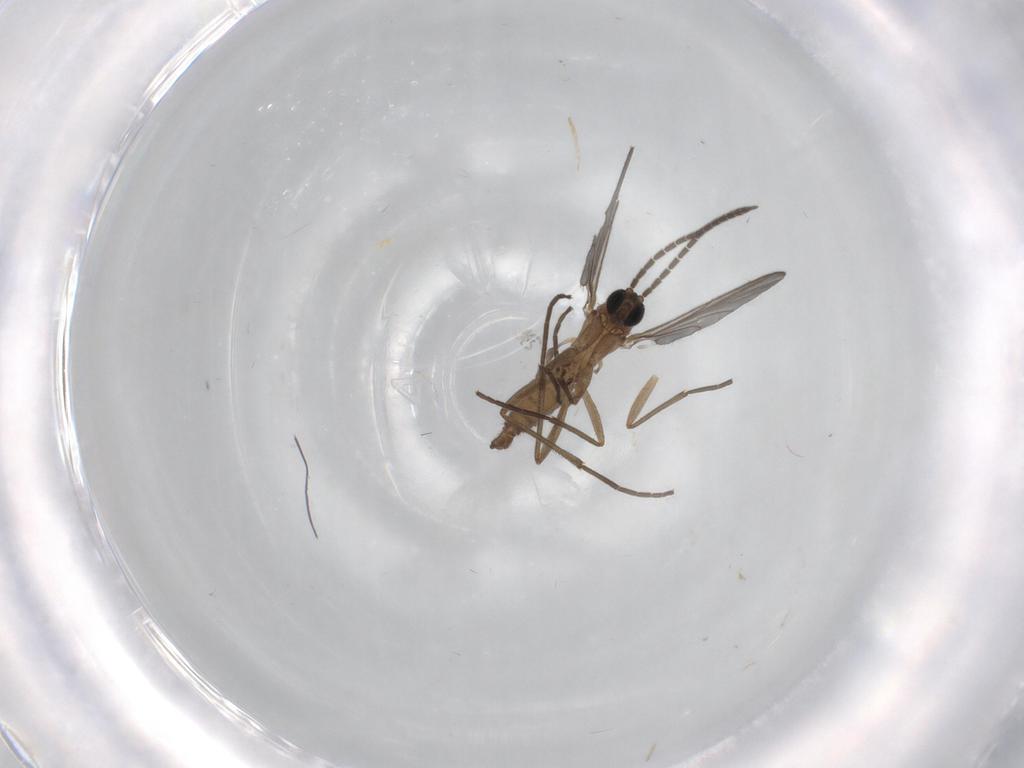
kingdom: Animalia
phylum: Arthropoda
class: Insecta
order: Diptera
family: Sciaridae
